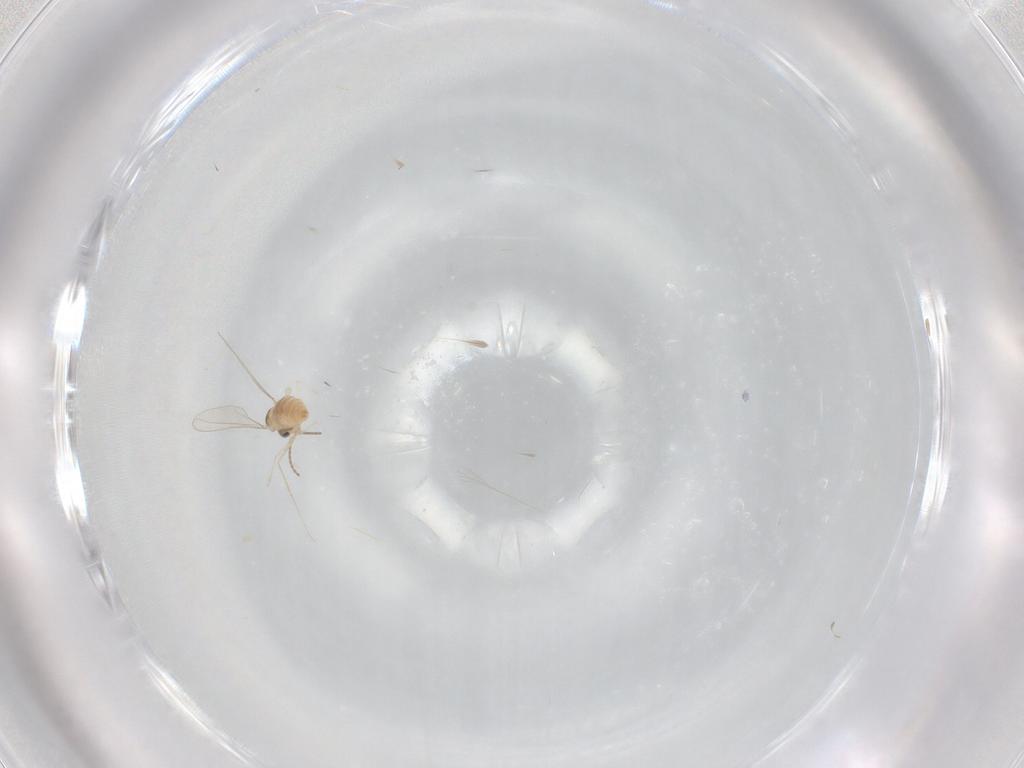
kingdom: Animalia
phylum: Arthropoda
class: Insecta
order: Diptera
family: Cecidomyiidae
